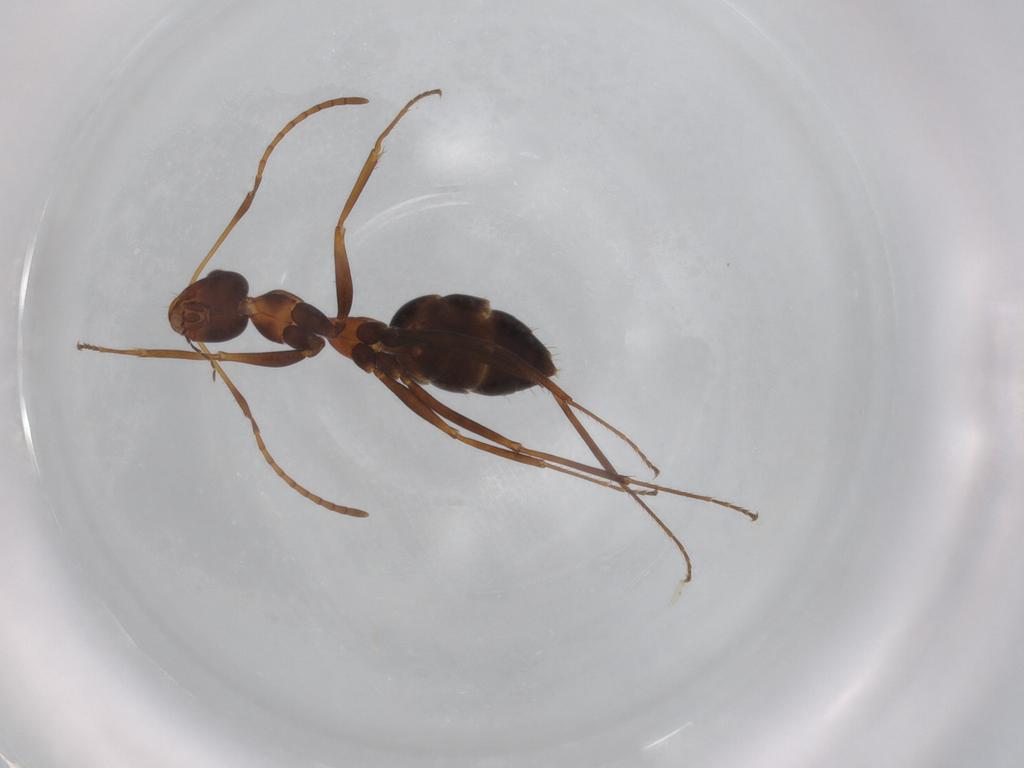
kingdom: Animalia
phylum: Arthropoda
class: Insecta
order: Hymenoptera
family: Formicidae
